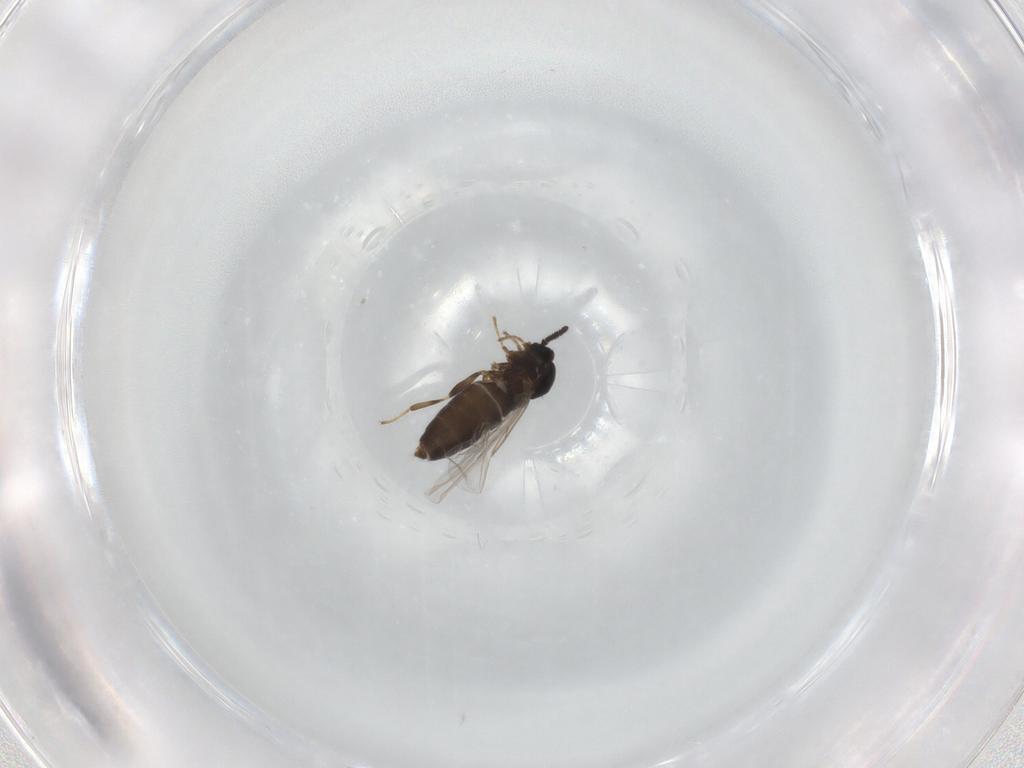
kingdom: Animalia
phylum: Arthropoda
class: Insecta
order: Diptera
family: Scatopsidae
